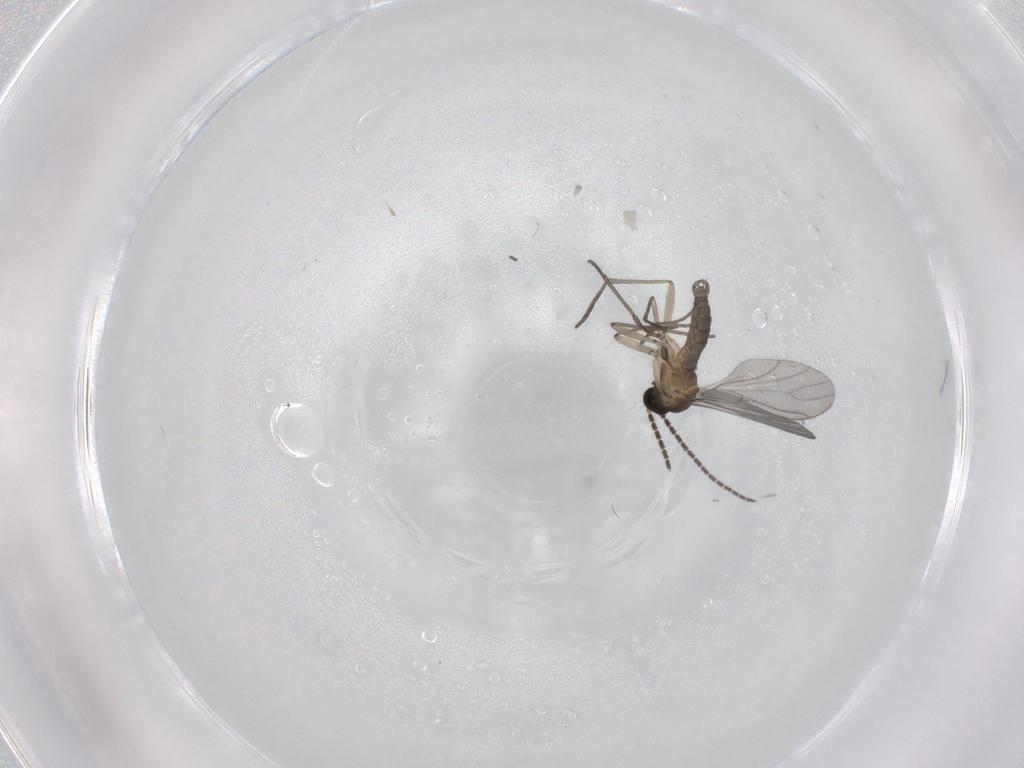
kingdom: Animalia
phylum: Arthropoda
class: Insecta
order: Diptera
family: Sciaridae
